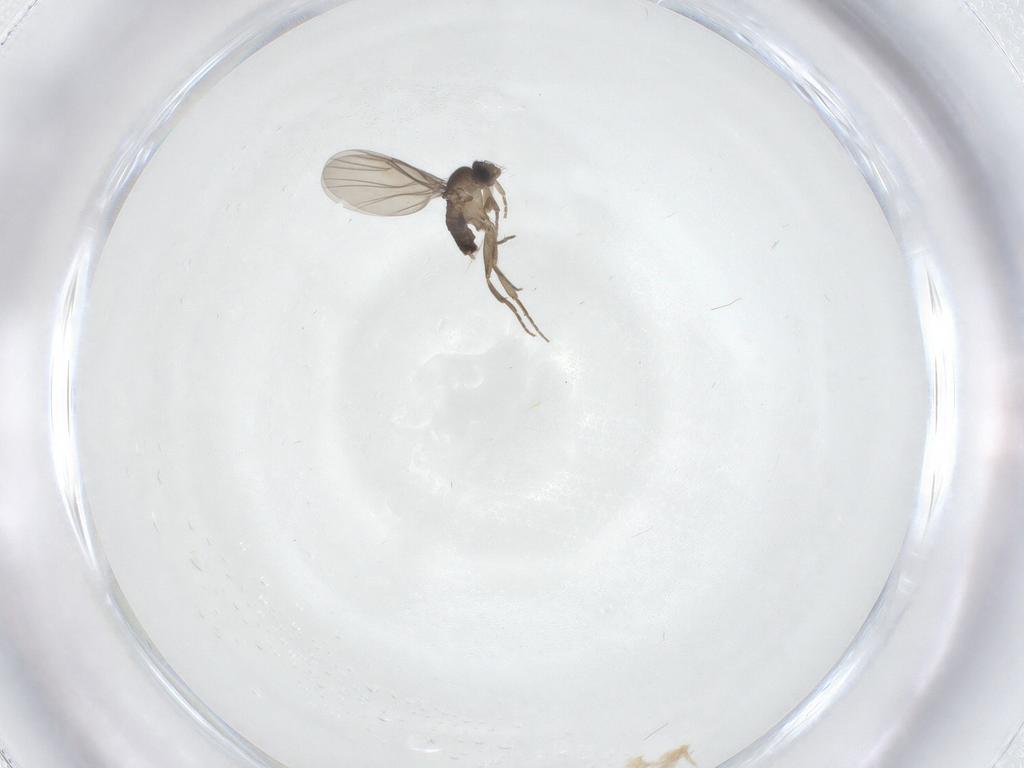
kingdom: Animalia
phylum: Arthropoda
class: Insecta
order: Diptera
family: Phoridae
